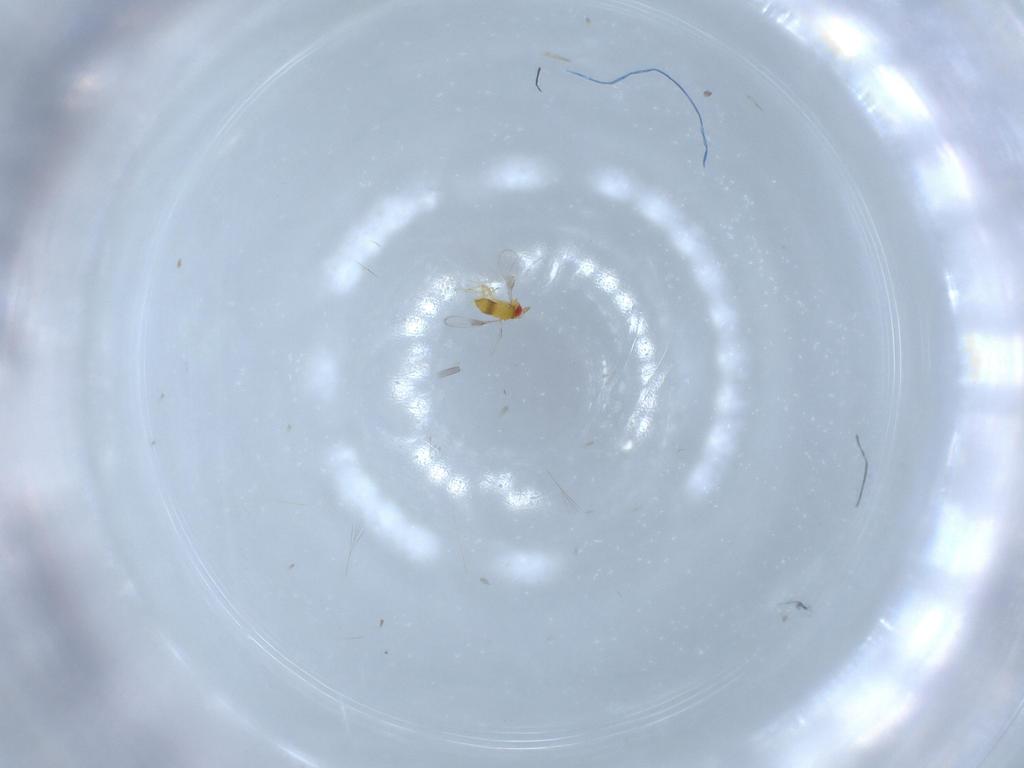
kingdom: Animalia
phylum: Arthropoda
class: Insecta
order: Hymenoptera
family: Trichogrammatidae
